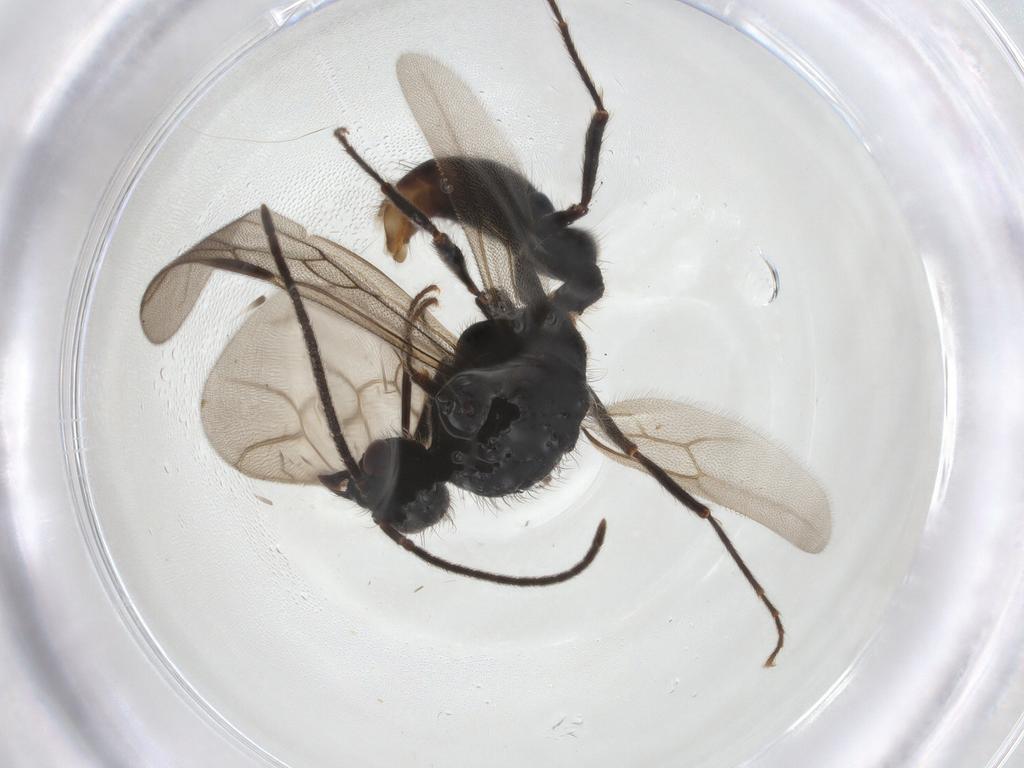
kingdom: Animalia
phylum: Arthropoda
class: Insecta
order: Hymenoptera
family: Formicidae
